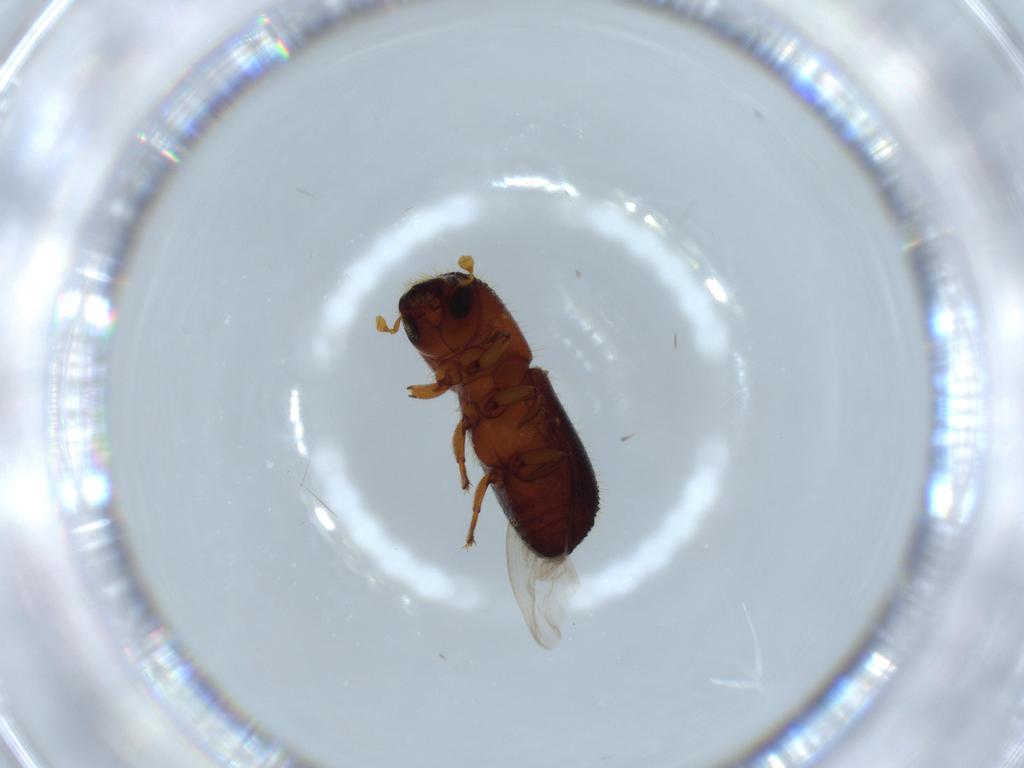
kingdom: Animalia
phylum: Arthropoda
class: Insecta
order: Coleoptera
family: Curculionidae
